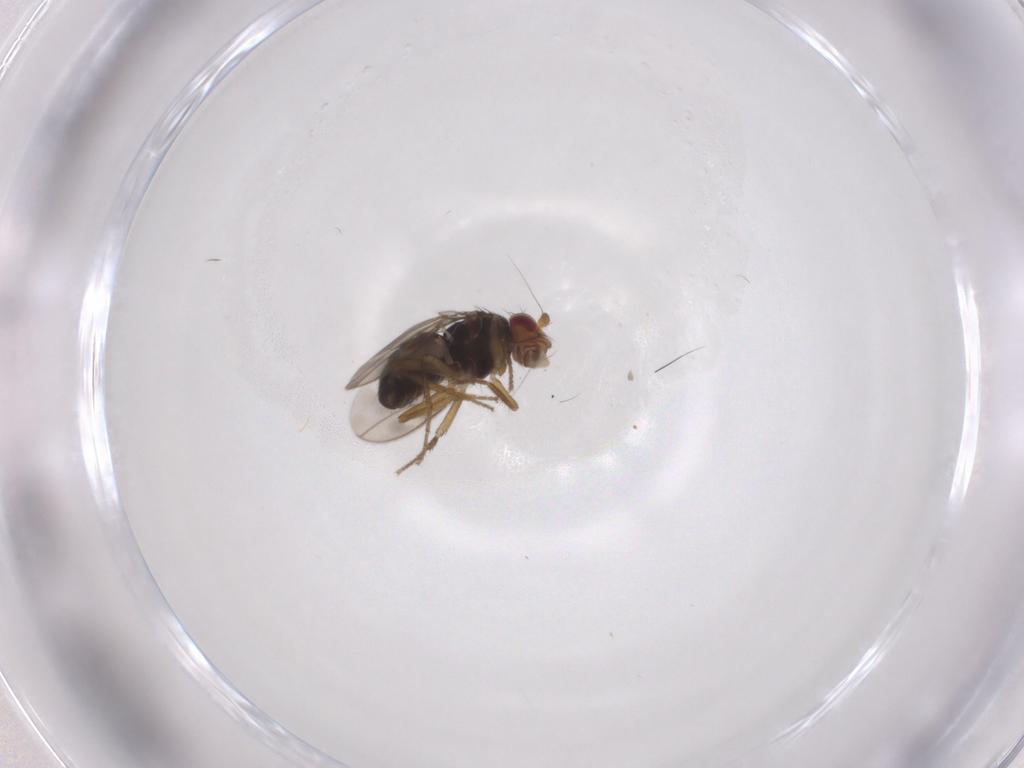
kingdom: Animalia
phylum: Arthropoda
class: Insecta
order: Diptera
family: Sphaeroceridae
